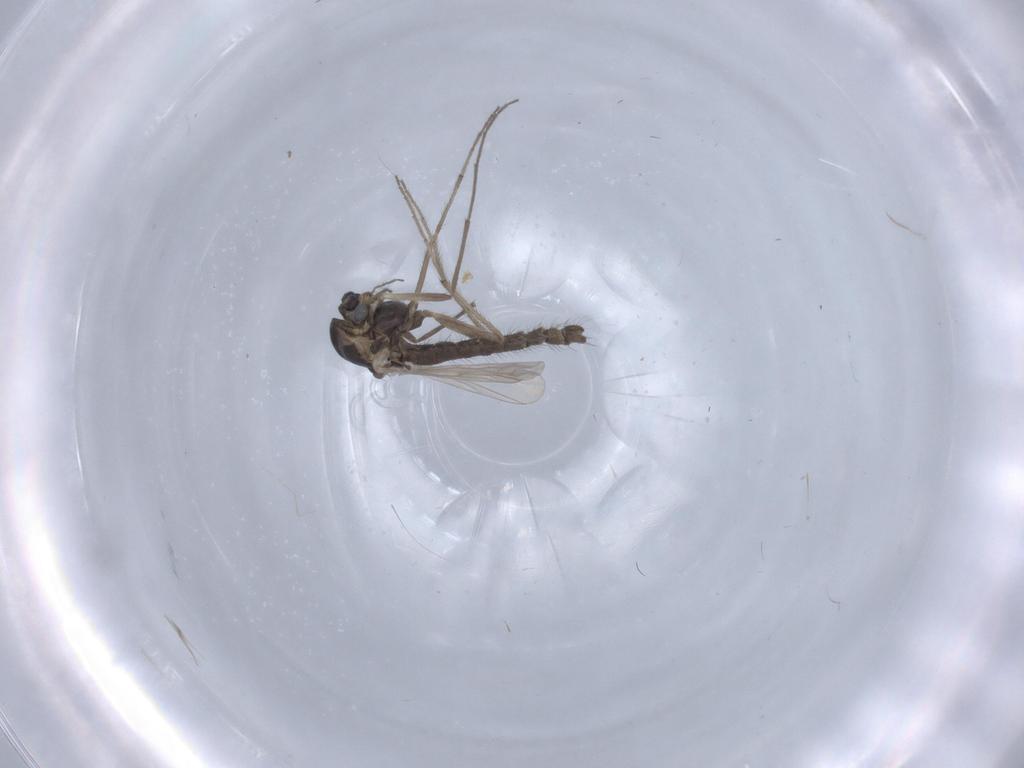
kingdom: Animalia
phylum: Arthropoda
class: Insecta
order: Diptera
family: Chironomidae
